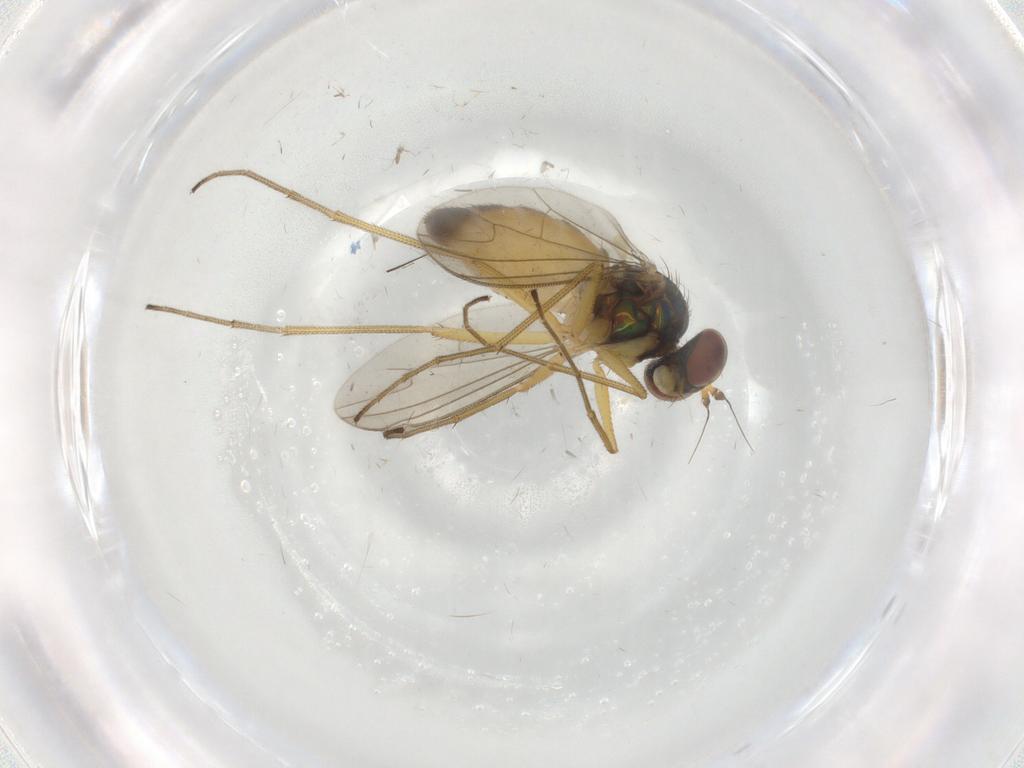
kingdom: Animalia
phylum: Arthropoda
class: Insecta
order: Diptera
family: Dolichopodidae
